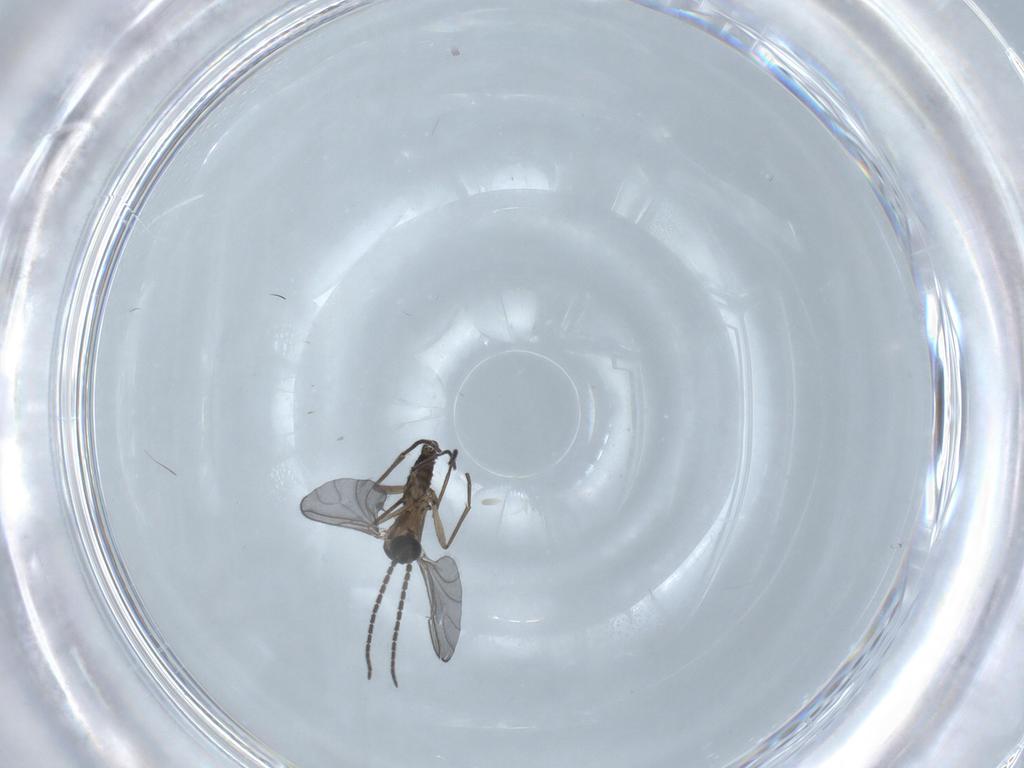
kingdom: Animalia
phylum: Arthropoda
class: Insecta
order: Diptera
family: Sciaridae
